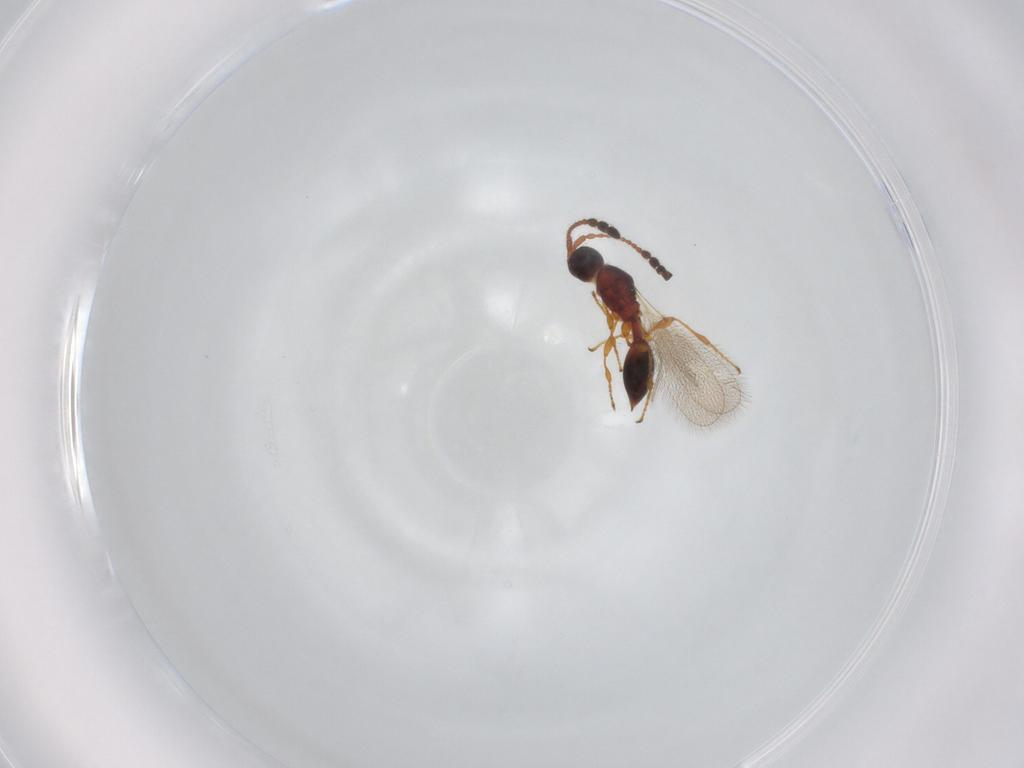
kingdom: Animalia
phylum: Arthropoda
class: Insecta
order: Hymenoptera
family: Diapriidae
